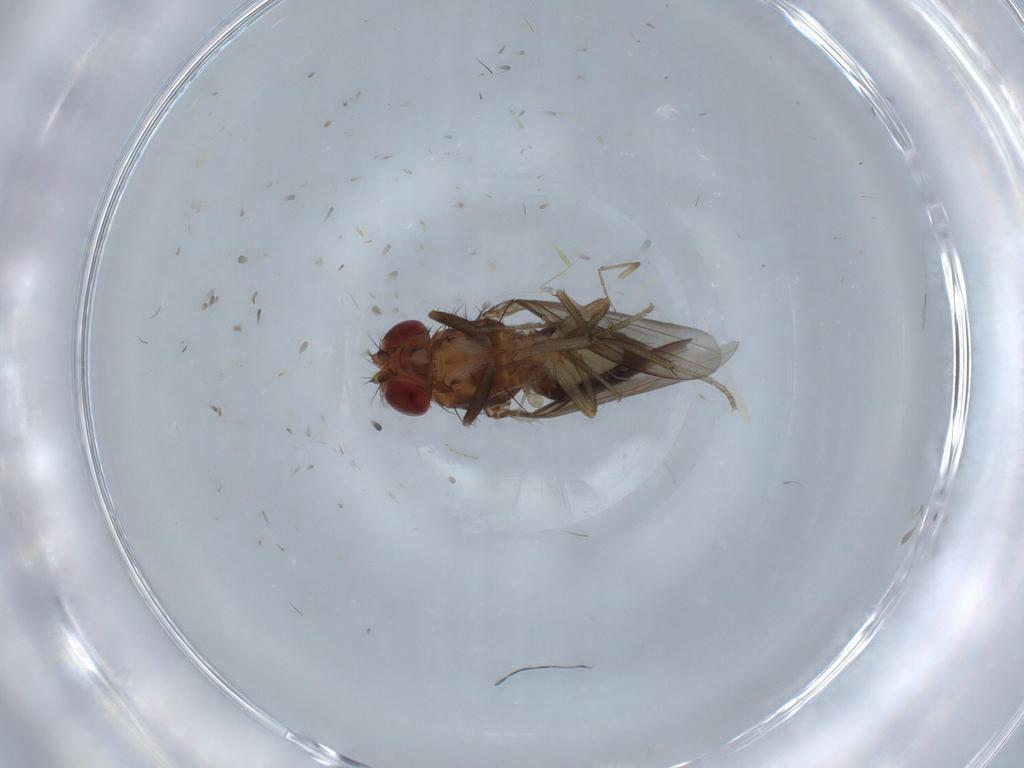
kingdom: Animalia
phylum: Arthropoda
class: Insecta
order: Diptera
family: Drosophilidae
